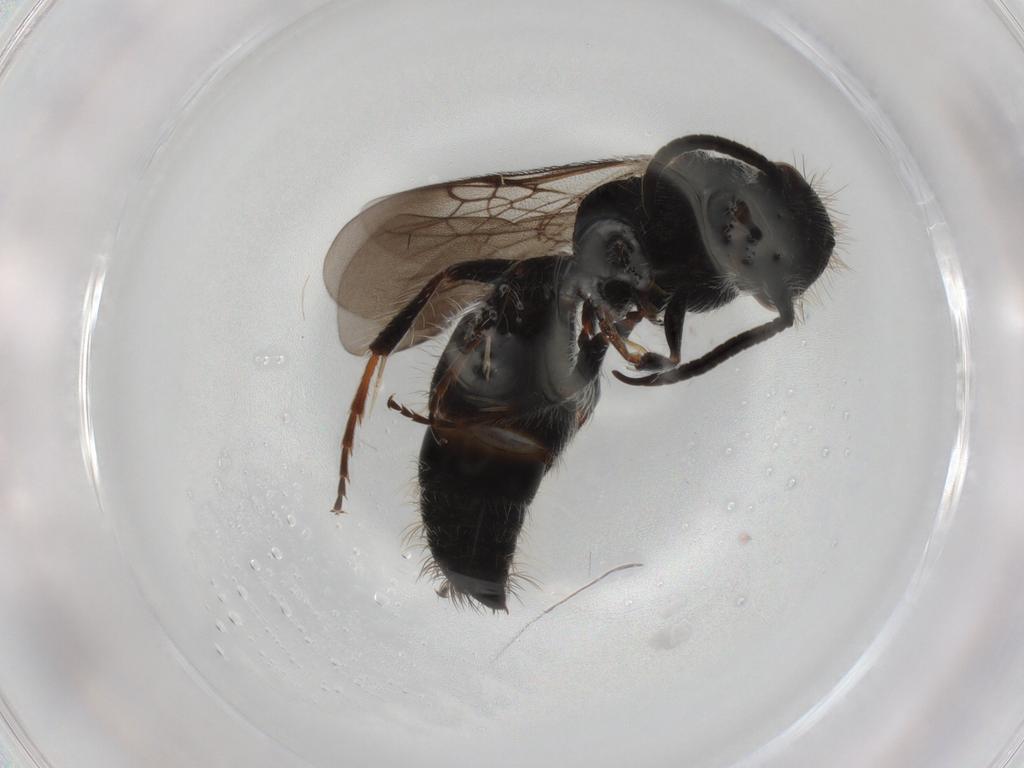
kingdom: Animalia
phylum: Arthropoda
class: Insecta
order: Hymenoptera
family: Mutillidae
